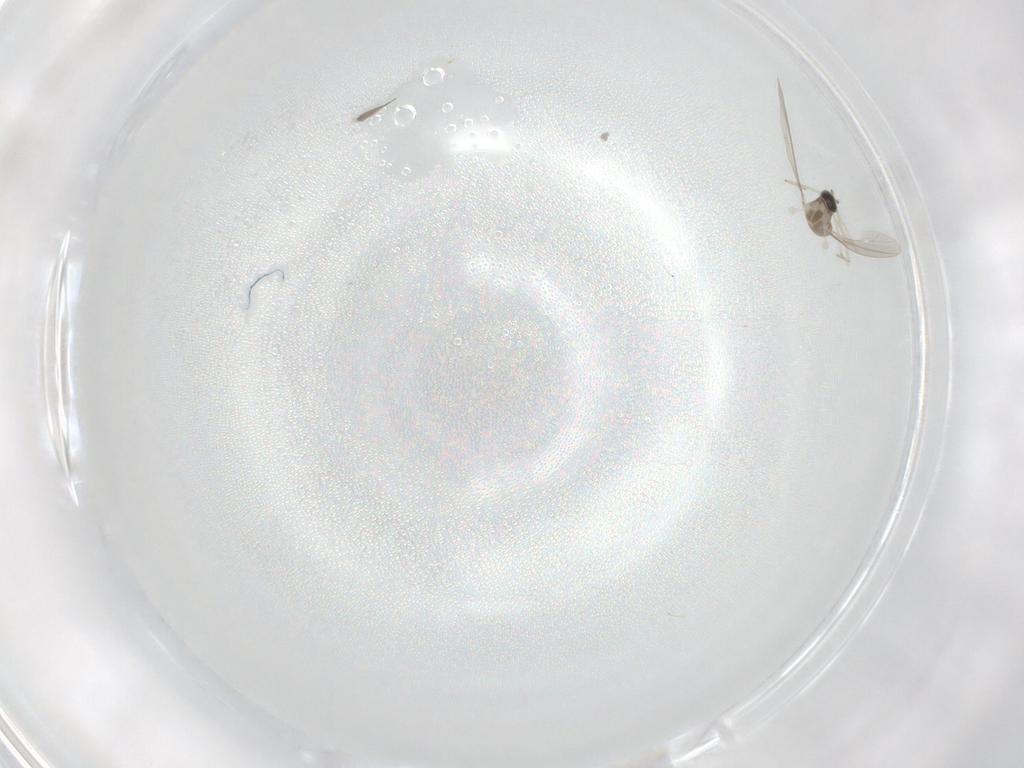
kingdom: Animalia
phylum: Arthropoda
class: Insecta
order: Diptera
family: Cecidomyiidae
